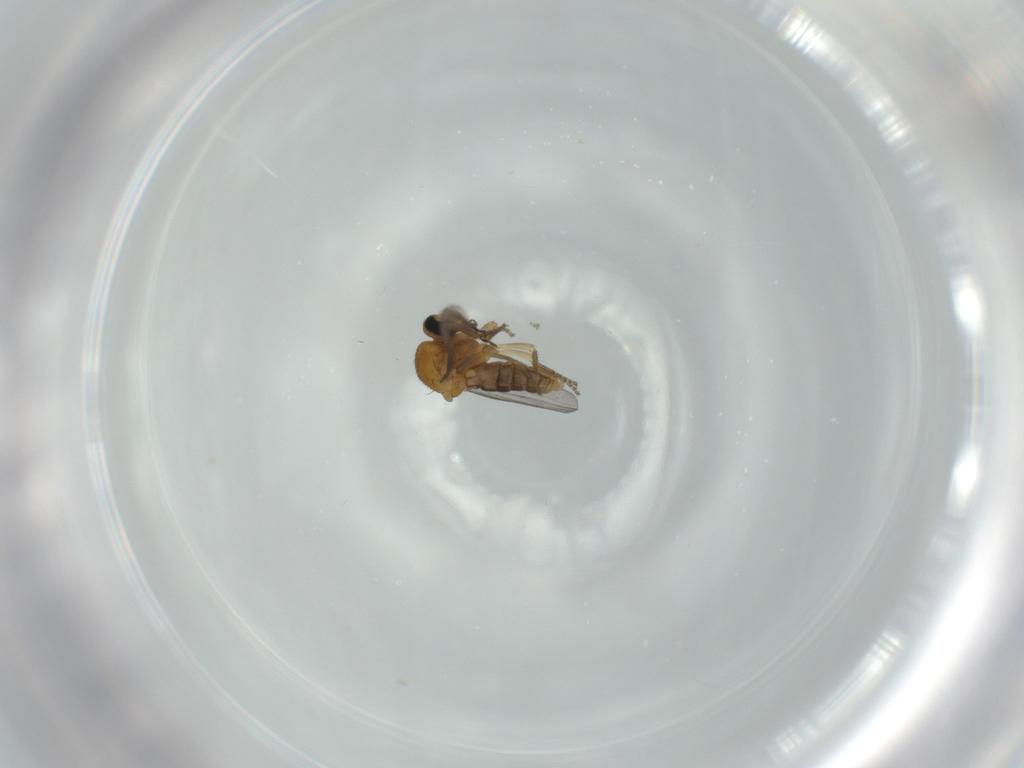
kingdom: Animalia
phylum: Arthropoda
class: Insecta
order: Diptera
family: Ceratopogonidae
